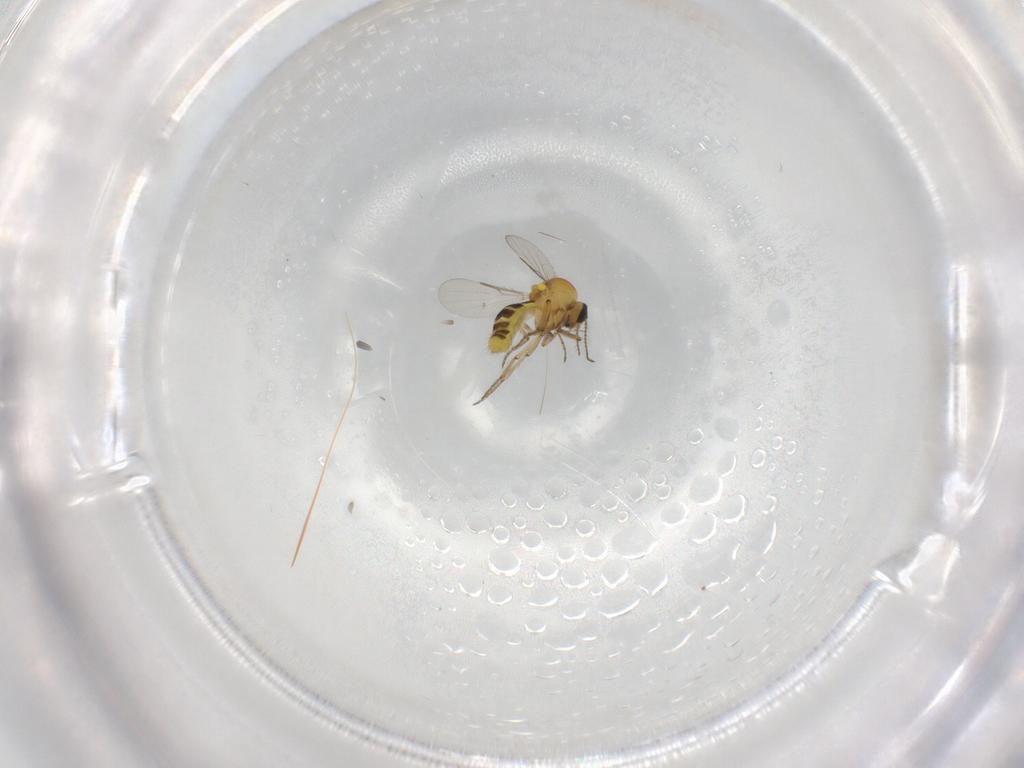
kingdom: Animalia
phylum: Arthropoda
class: Insecta
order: Diptera
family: Ceratopogonidae
